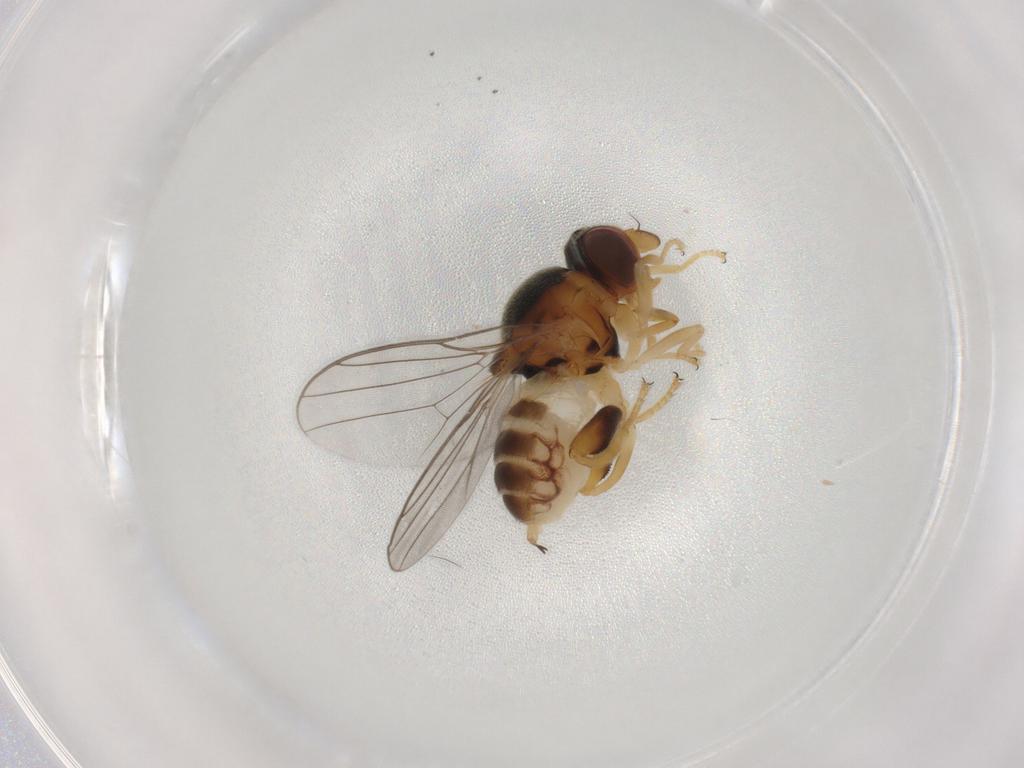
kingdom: Animalia
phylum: Arthropoda
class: Insecta
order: Diptera
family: Chloropidae
